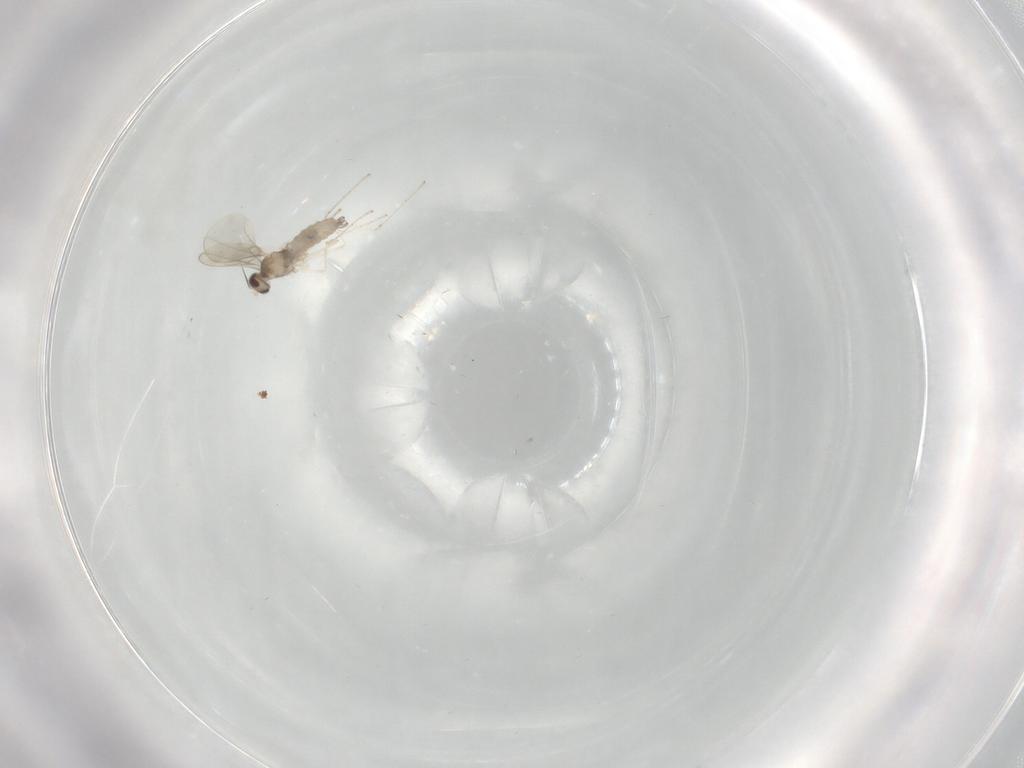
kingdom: Animalia
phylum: Arthropoda
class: Insecta
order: Diptera
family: Cecidomyiidae
